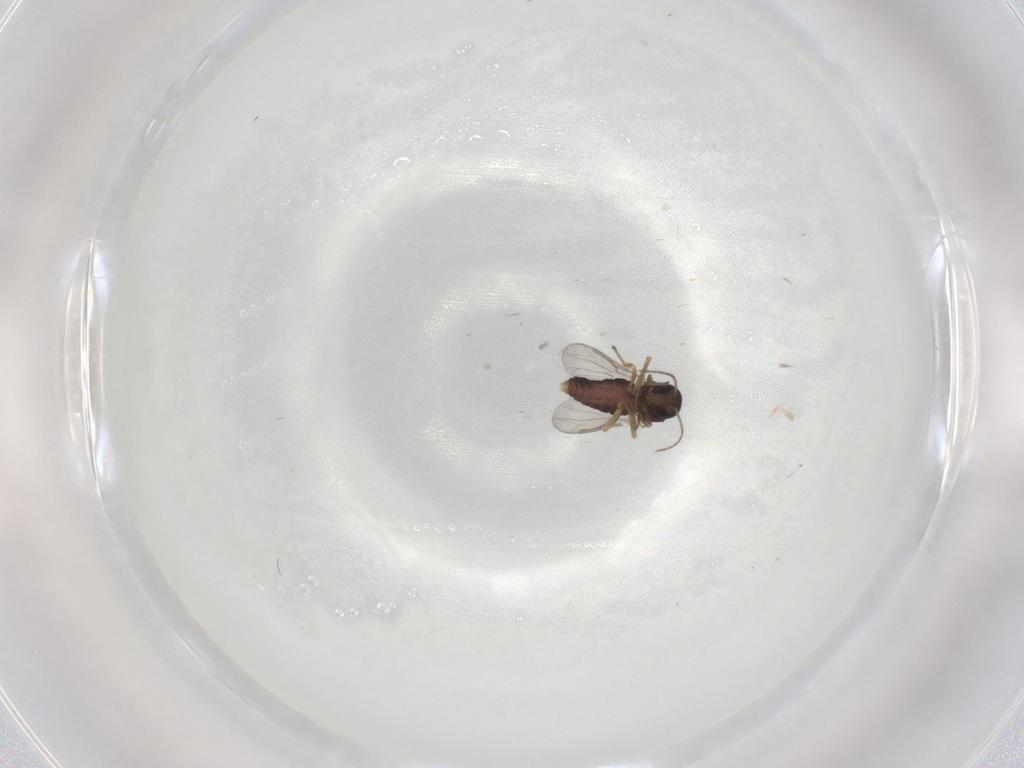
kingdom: Animalia
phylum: Arthropoda
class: Insecta
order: Diptera
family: Ceratopogonidae
